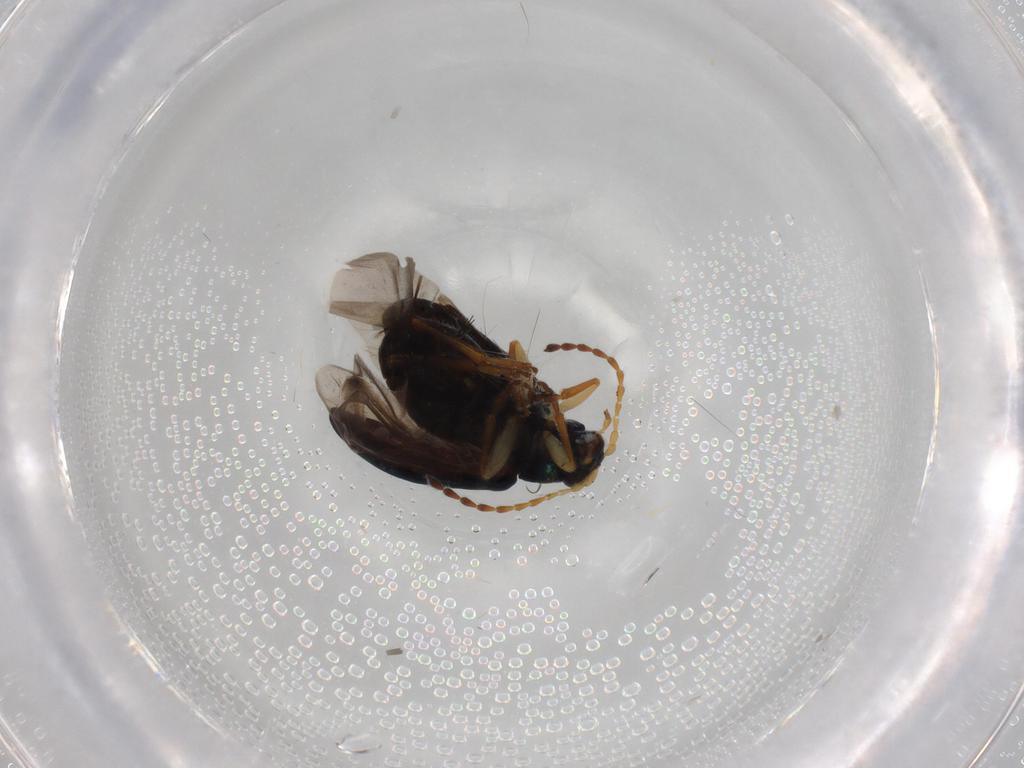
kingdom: Animalia
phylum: Arthropoda
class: Insecta
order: Coleoptera
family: Chrysomelidae
